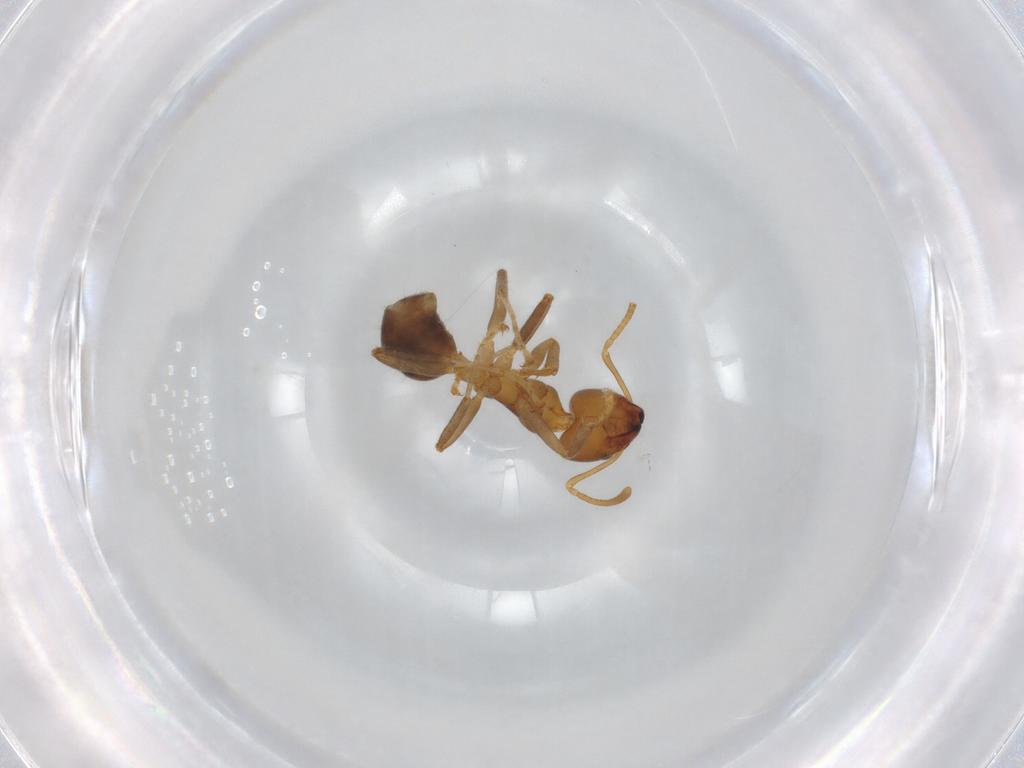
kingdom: Animalia
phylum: Arthropoda
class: Insecta
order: Hymenoptera
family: Formicidae
